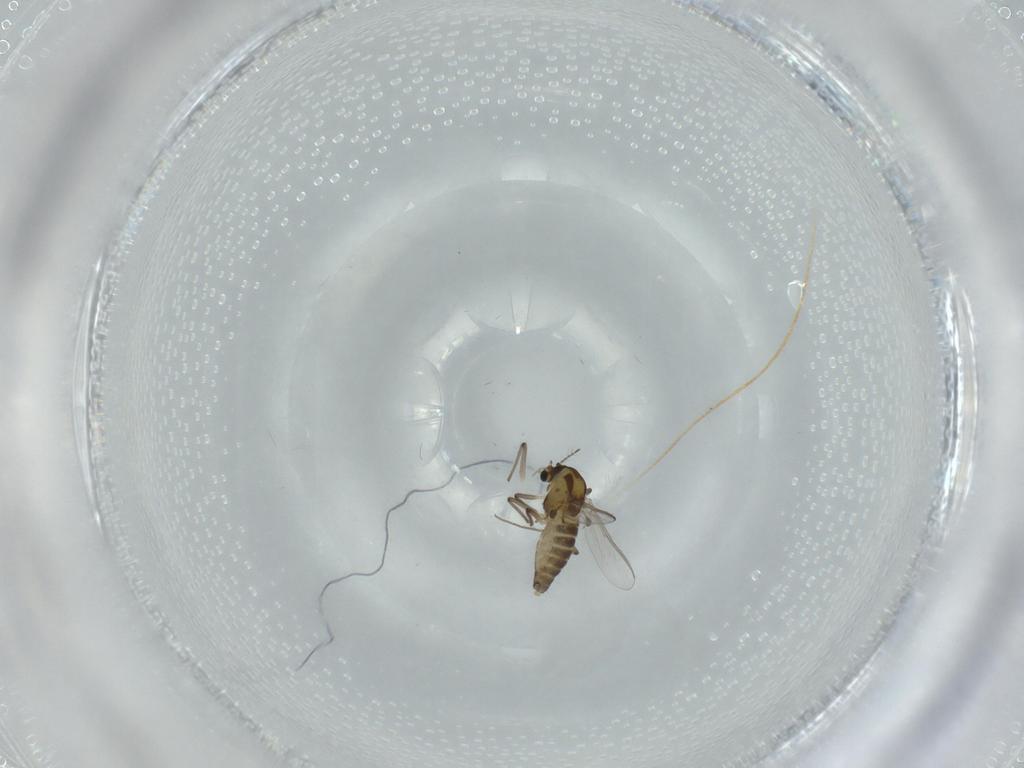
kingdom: Animalia
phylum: Arthropoda
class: Insecta
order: Diptera
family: Chironomidae
